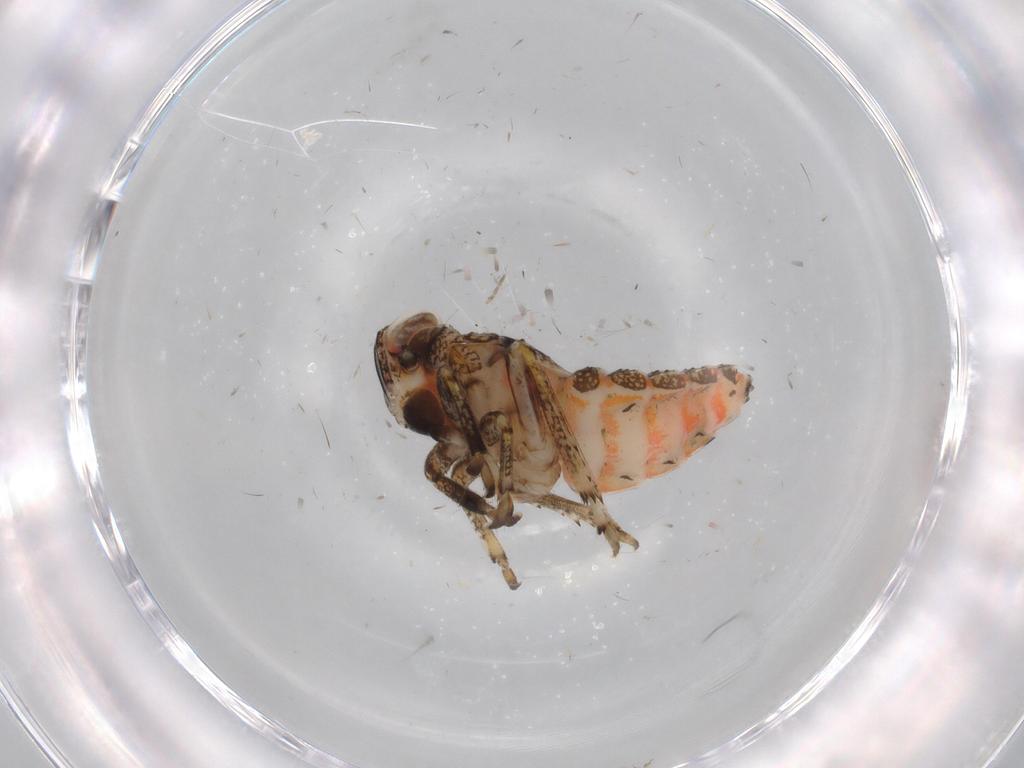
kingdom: Animalia
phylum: Arthropoda
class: Insecta
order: Hemiptera
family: Issidae
